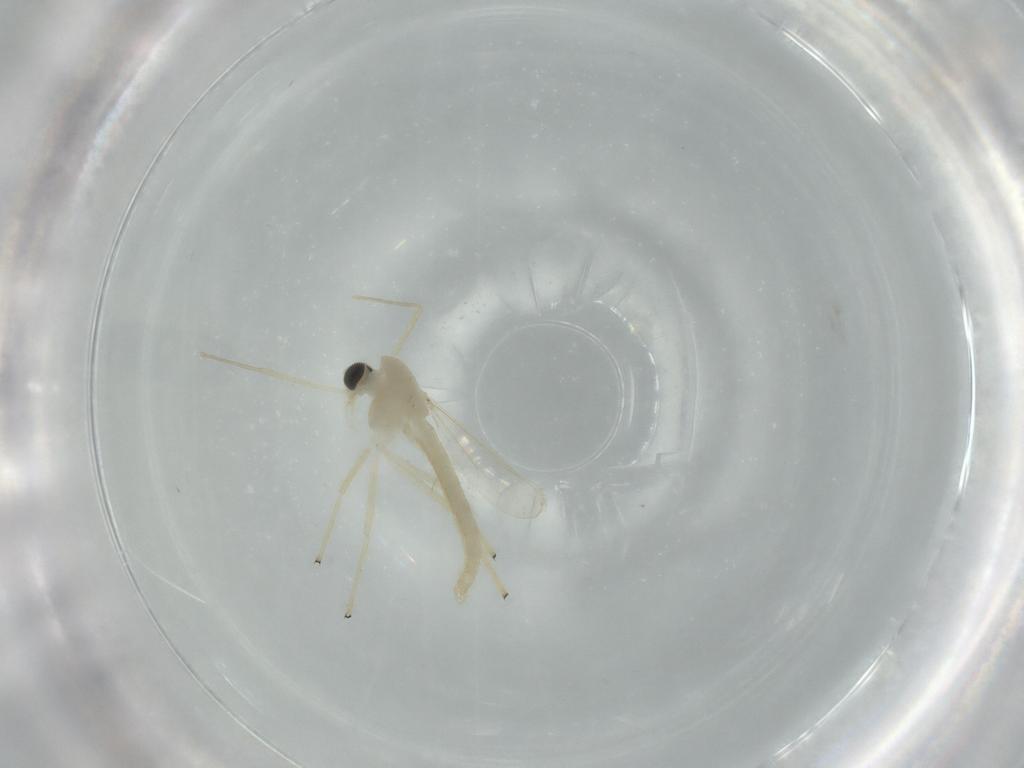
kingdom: Animalia
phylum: Arthropoda
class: Insecta
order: Diptera
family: Chironomidae
